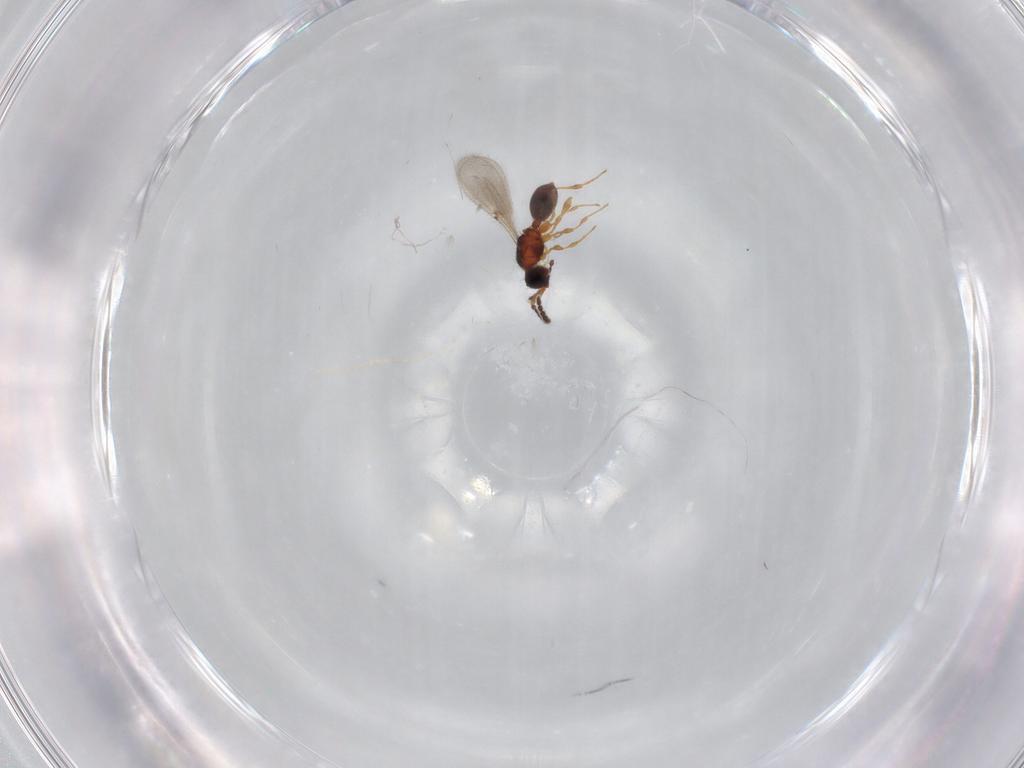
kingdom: Animalia
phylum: Arthropoda
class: Insecta
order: Hymenoptera
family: Diapriidae
